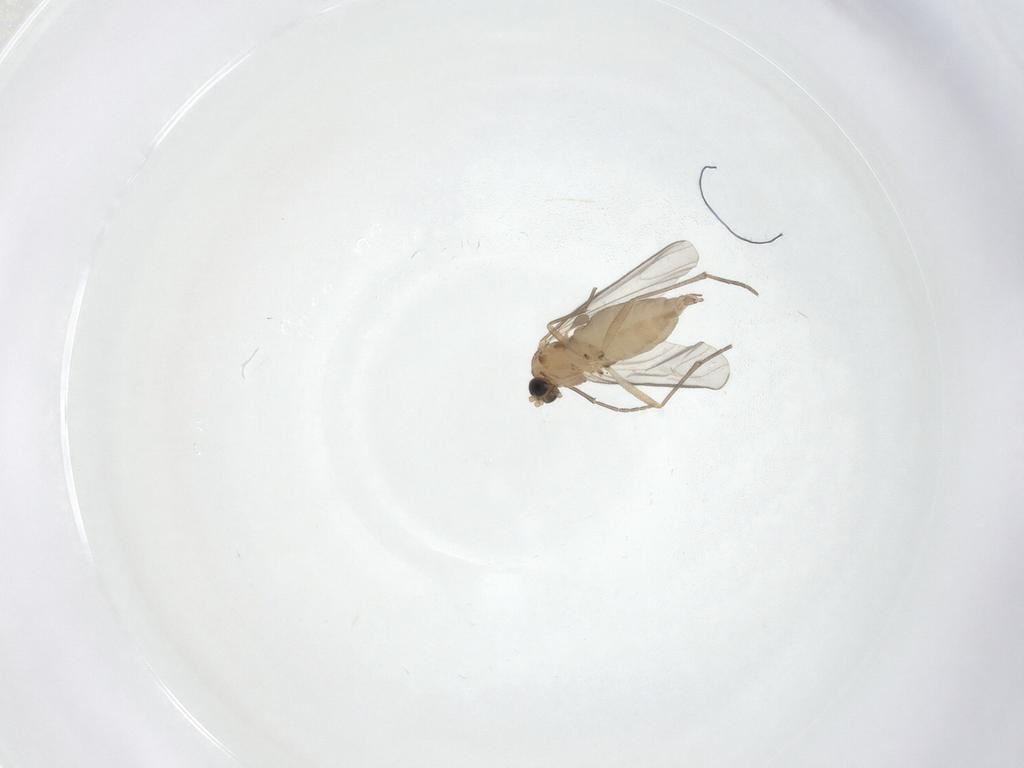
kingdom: Animalia
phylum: Arthropoda
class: Insecta
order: Diptera
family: Sciaridae
